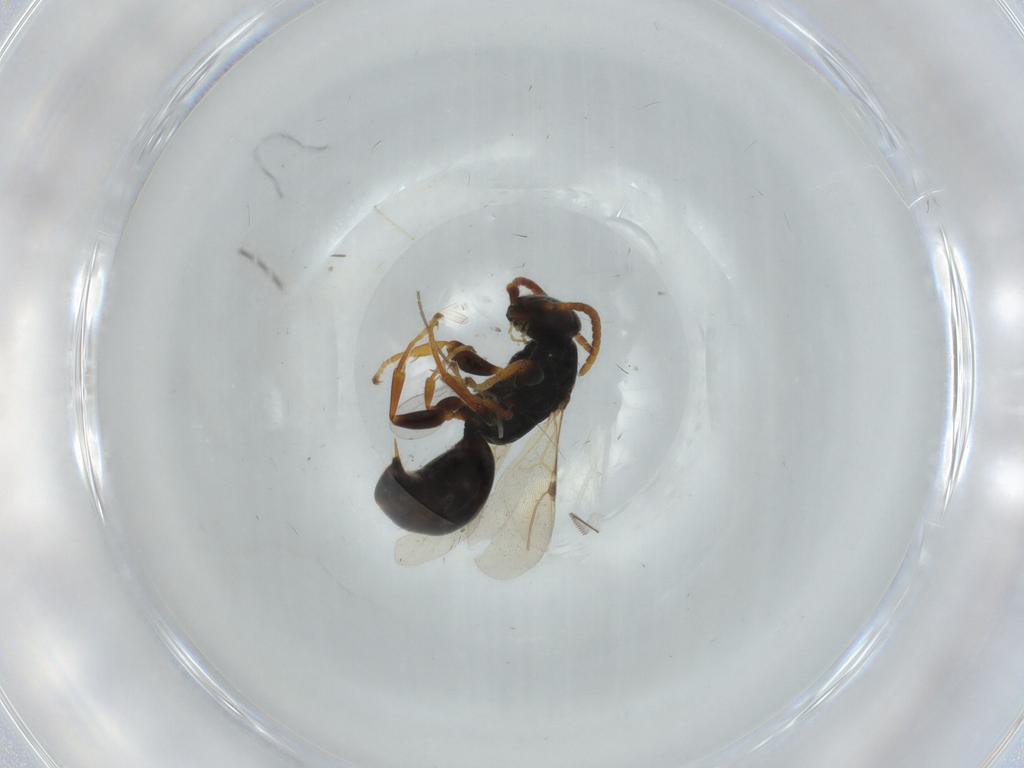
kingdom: Animalia
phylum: Arthropoda
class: Insecta
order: Hymenoptera
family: Bethylidae
